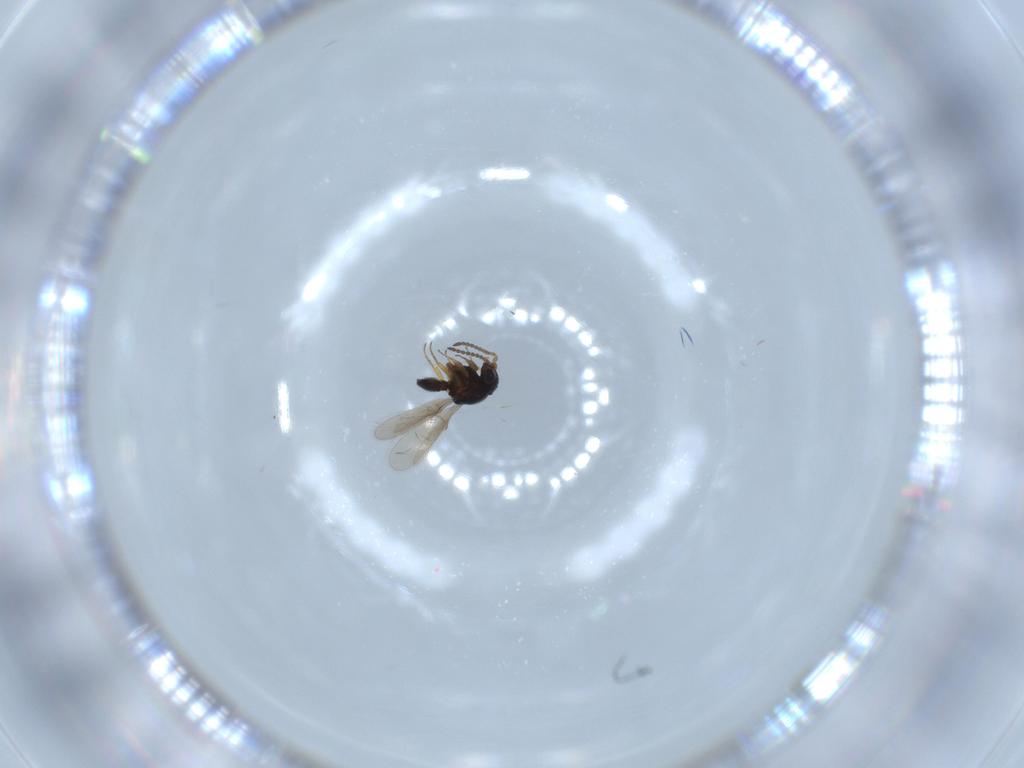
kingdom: Animalia
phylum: Arthropoda
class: Insecta
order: Hymenoptera
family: Scelionidae
